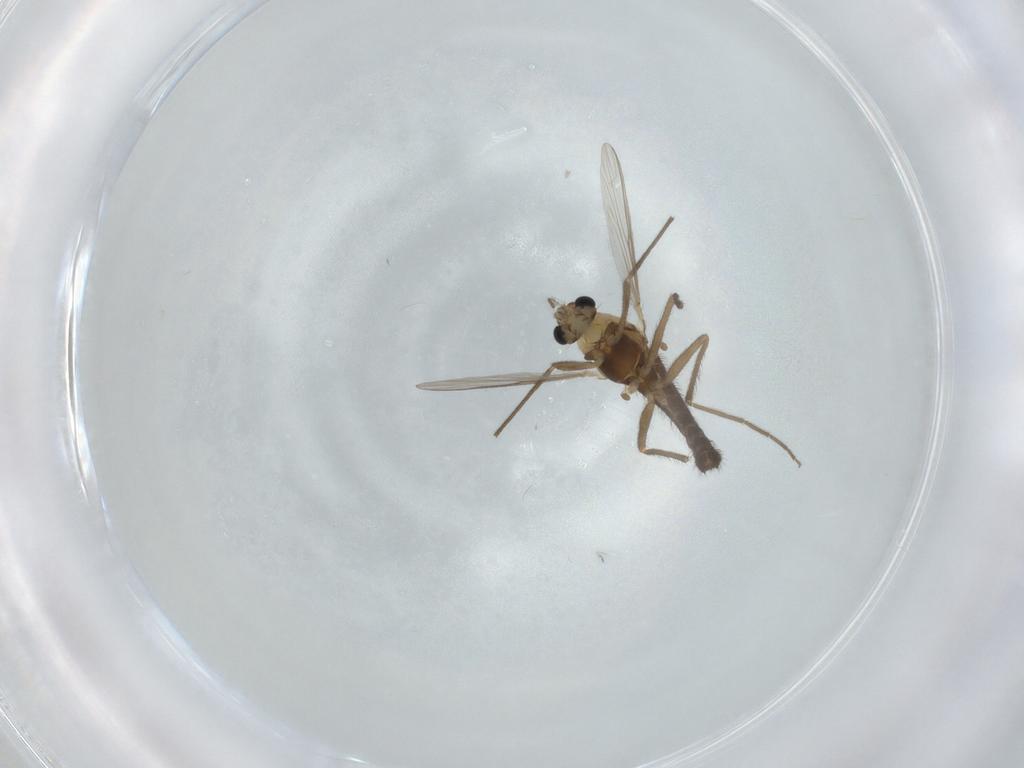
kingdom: Animalia
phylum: Arthropoda
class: Insecta
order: Diptera
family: Chironomidae
